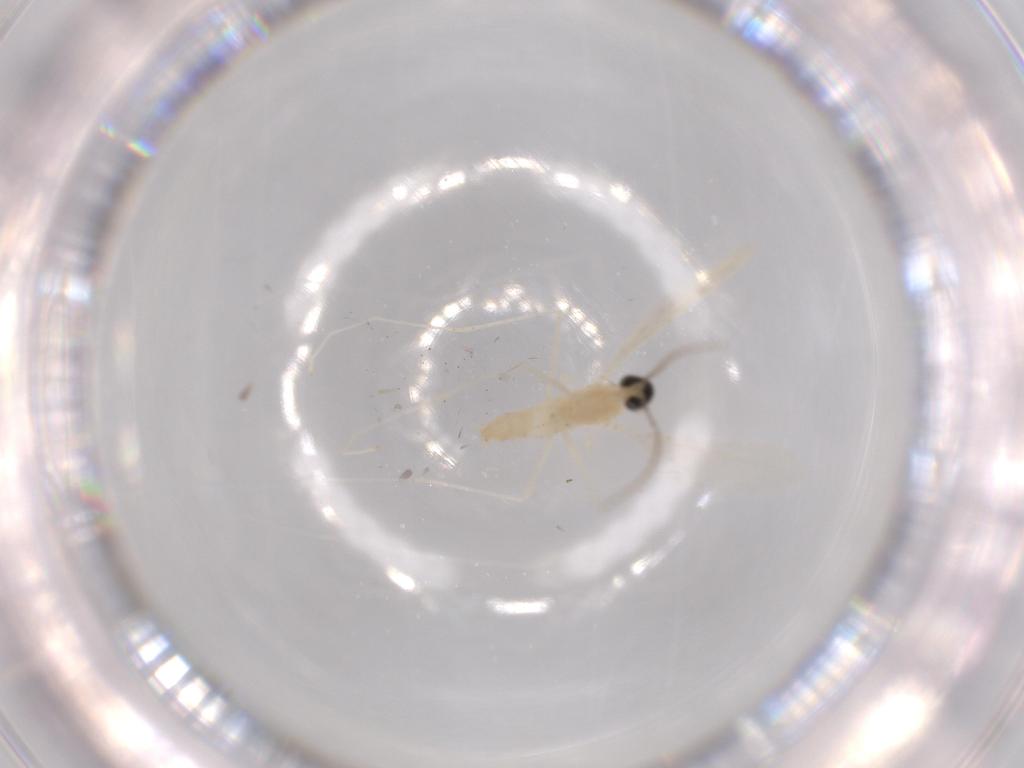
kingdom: Animalia
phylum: Arthropoda
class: Insecta
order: Diptera
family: Cecidomyiidae
